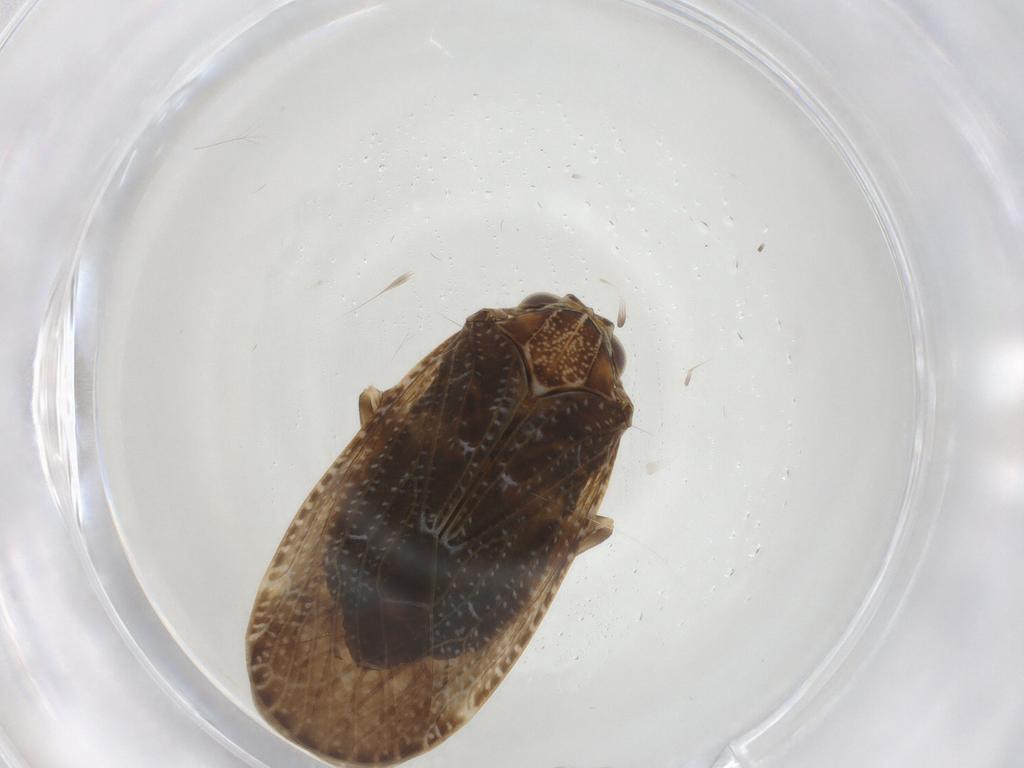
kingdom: Animalia
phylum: Arthropoda
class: Insecta
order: Hemiptera
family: Achilidae
